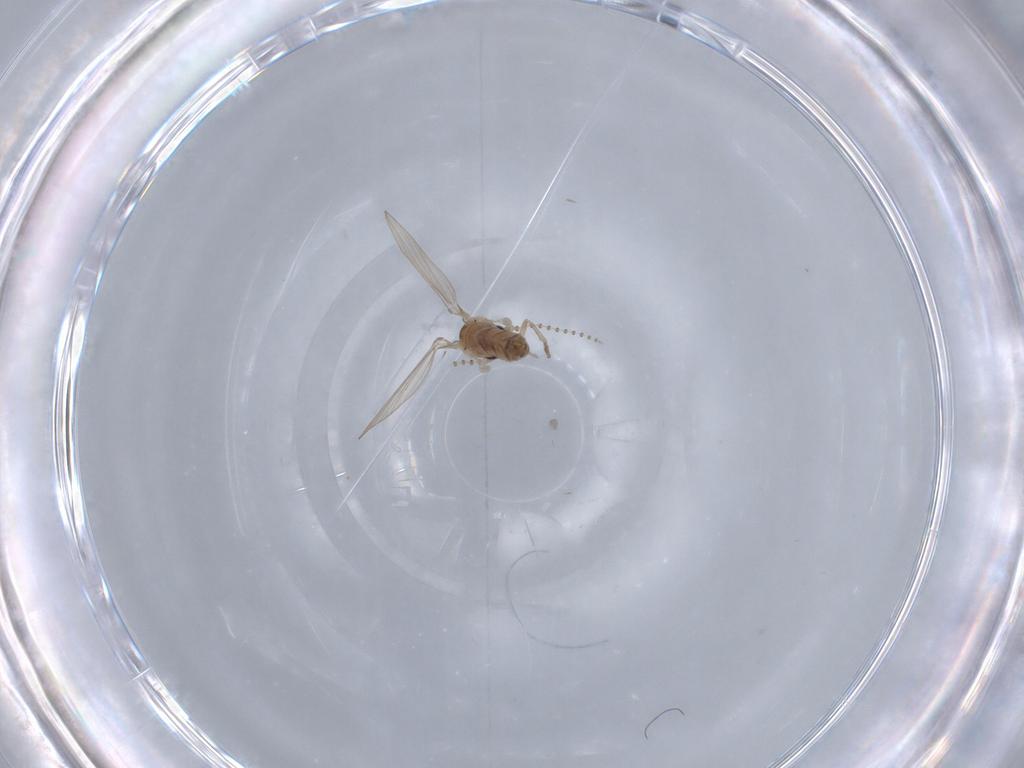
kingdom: Animalia
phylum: Arthropoda
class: Insecta
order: Diptera
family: Psychodidae
